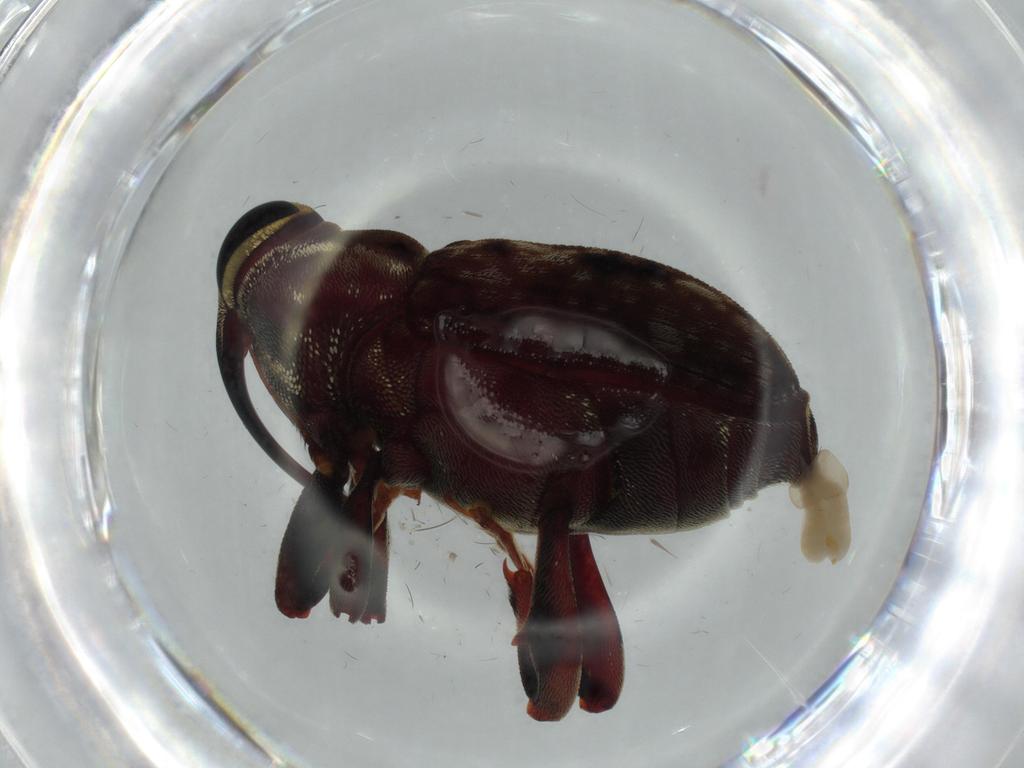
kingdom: Animalia
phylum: Arthropoda
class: Insecta
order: Coleoptera
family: Curculionidae
